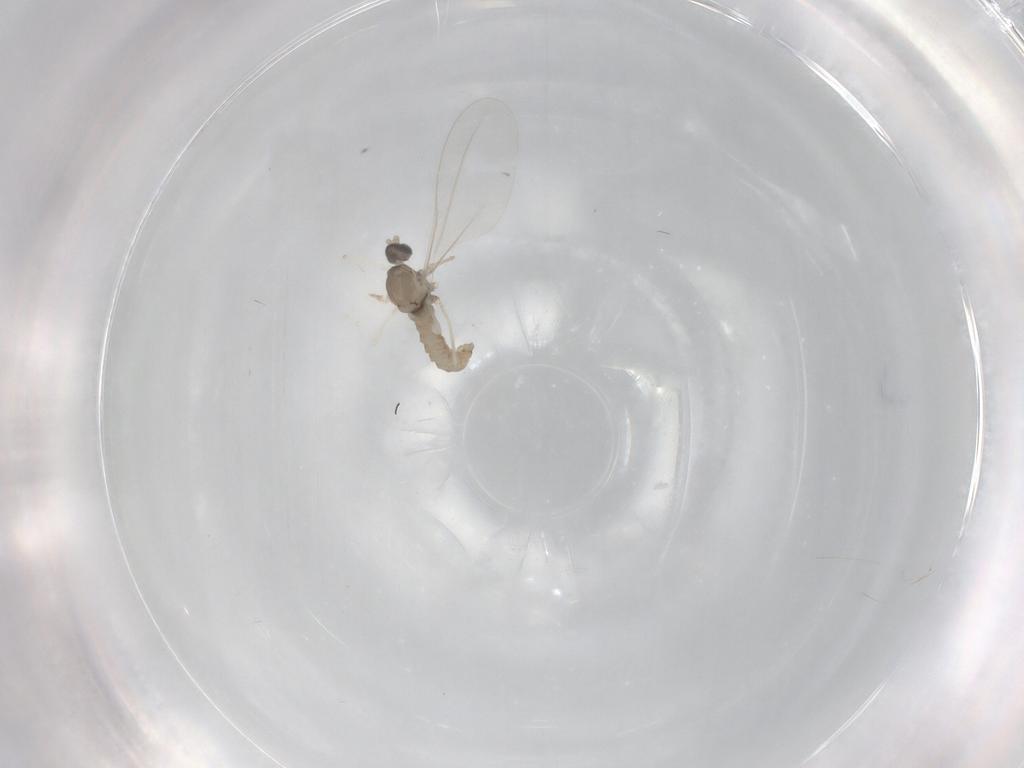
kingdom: Animalia
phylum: Arthropoda
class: Insecta
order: Diptera
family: Cecidomyiidae
